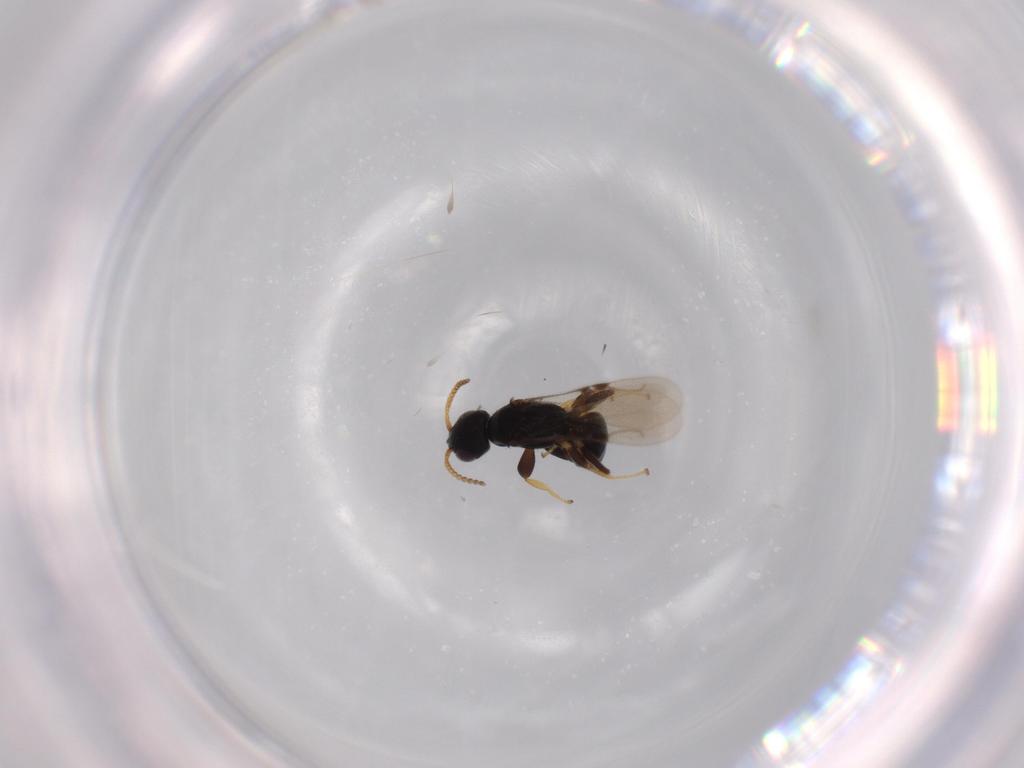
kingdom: Animalia
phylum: Arthropoda
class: Insecta
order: Hymenoptera
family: Bethylidae
